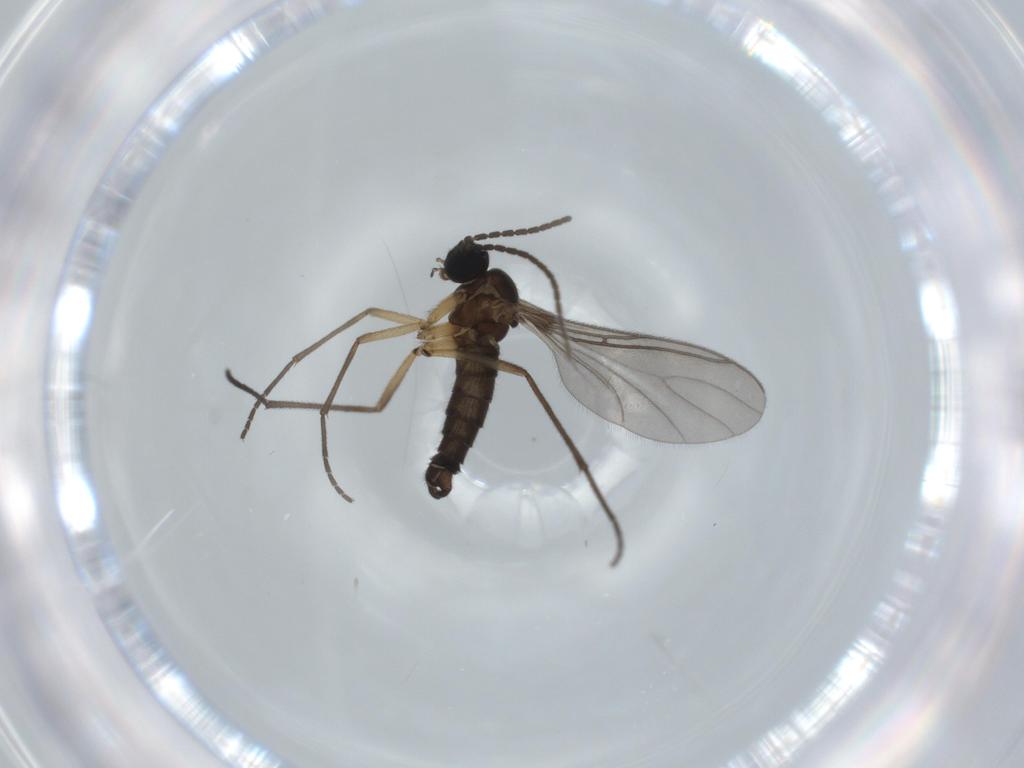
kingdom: Animalia
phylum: Arthropoda
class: Insecta
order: Diptera
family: Sciaridae
